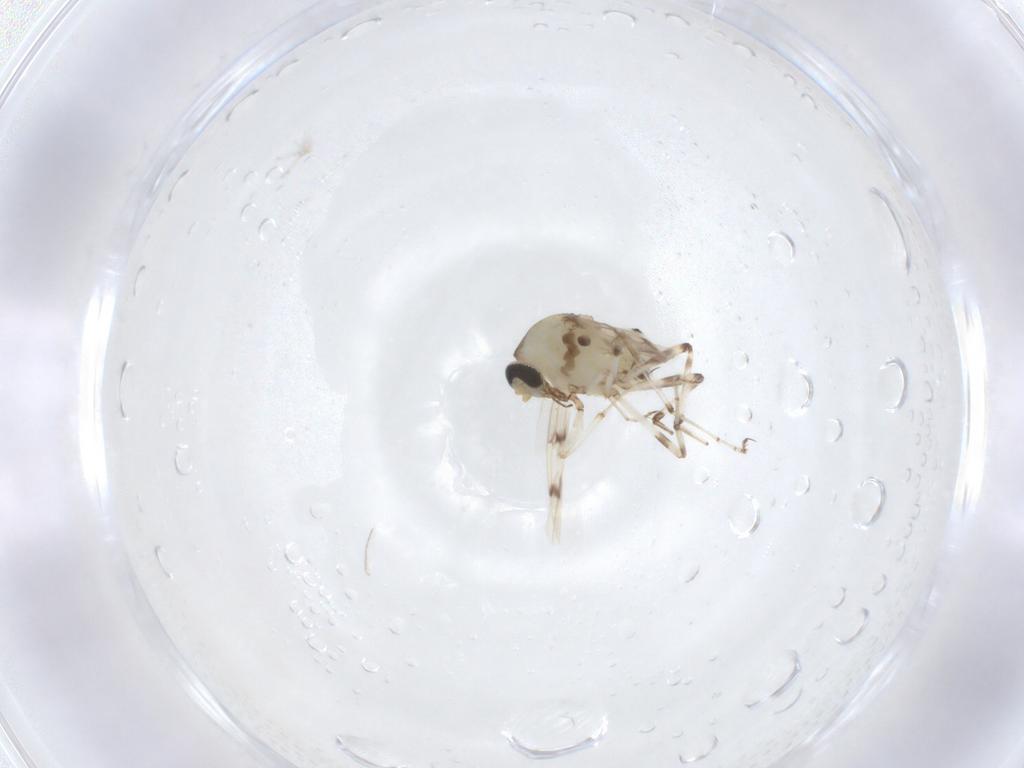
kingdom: Animalia
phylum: Arthropoda
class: Insecta
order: Diptera
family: Ceratopogonidae
